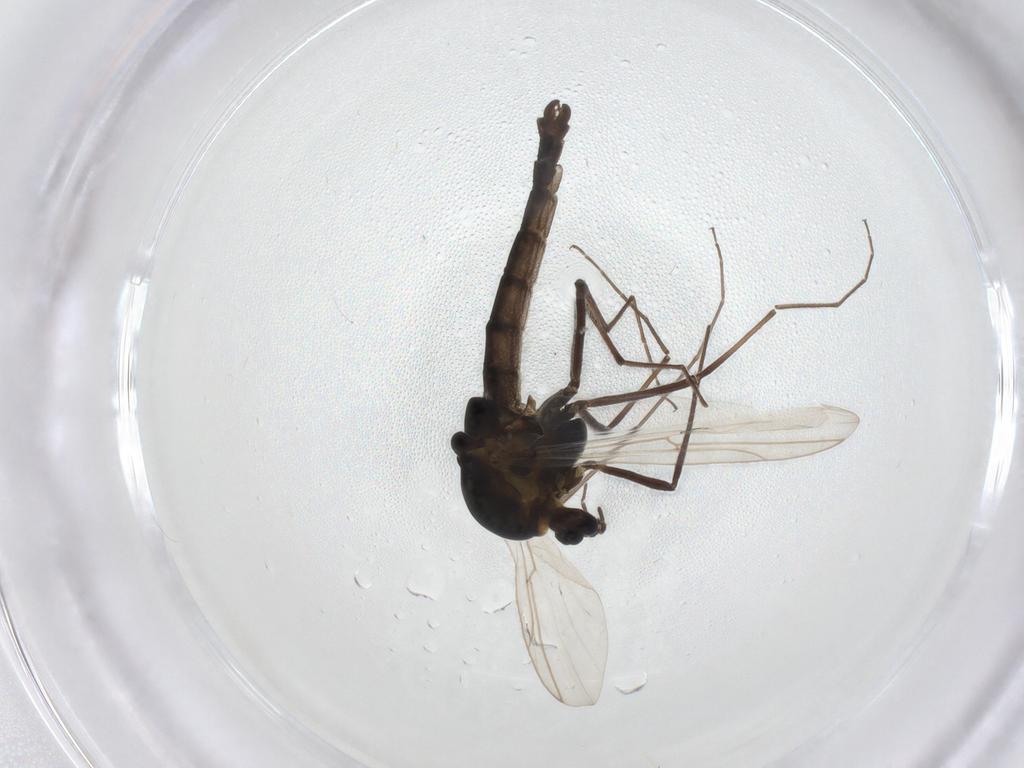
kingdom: Animalia
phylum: Arthropoda
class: Insecta
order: Diptera
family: Chironomidae
